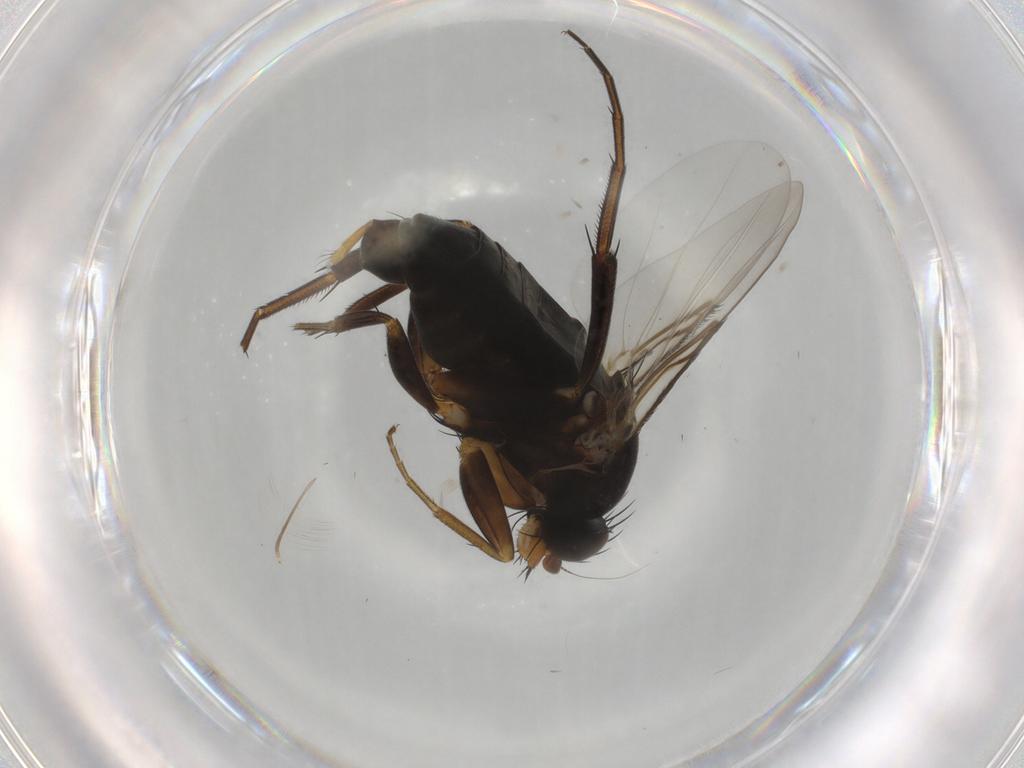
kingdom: Animalia
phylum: Arthropoda
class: Insecta
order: Diptera
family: Phoridae
